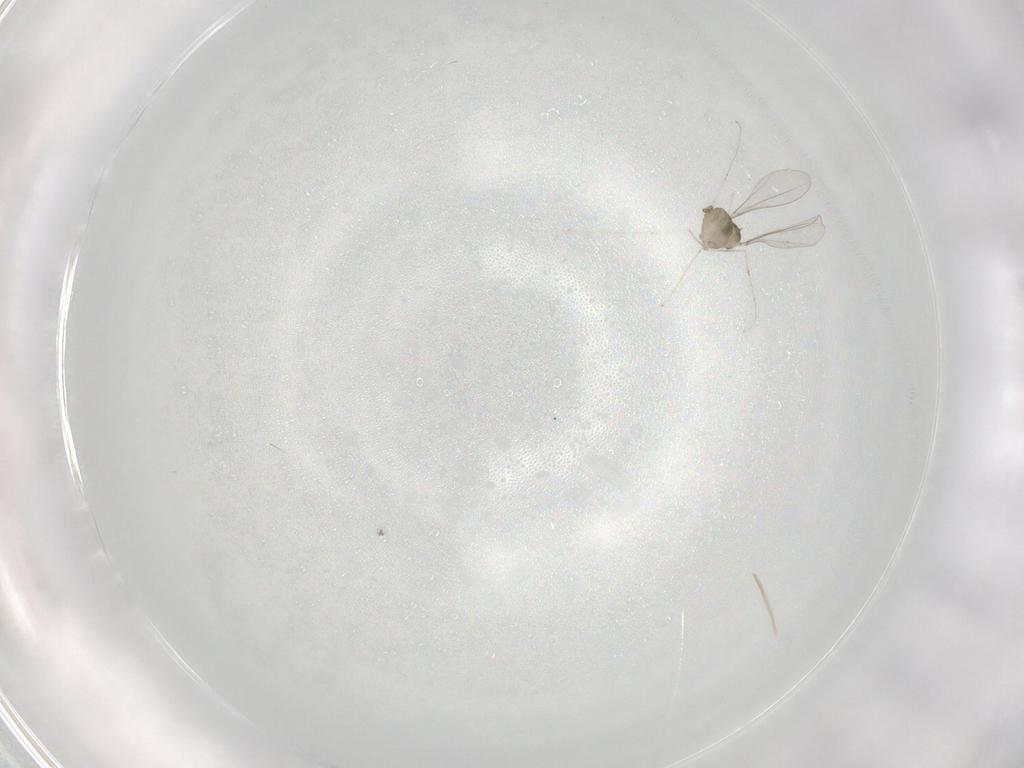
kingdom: Animalia
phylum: Arthropoda
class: Insecta
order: Diptera
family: Cecidomyiidae
